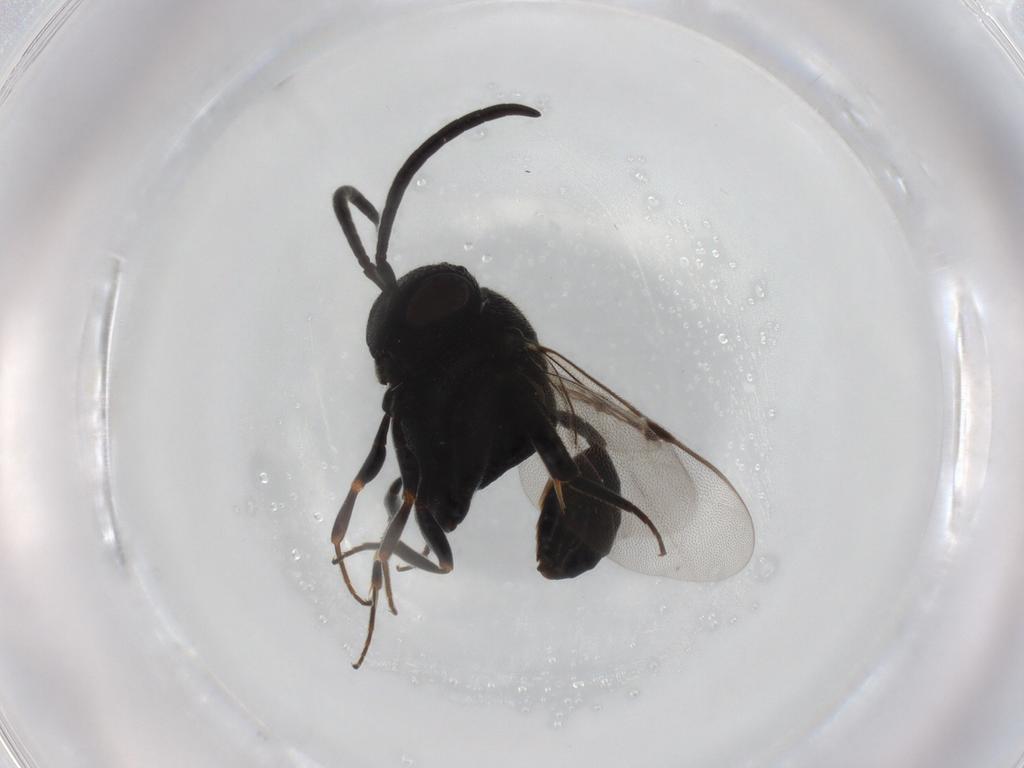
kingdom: Animalia
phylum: Arthropoda
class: Insecta
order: Hymenoptera
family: Evaniidae
